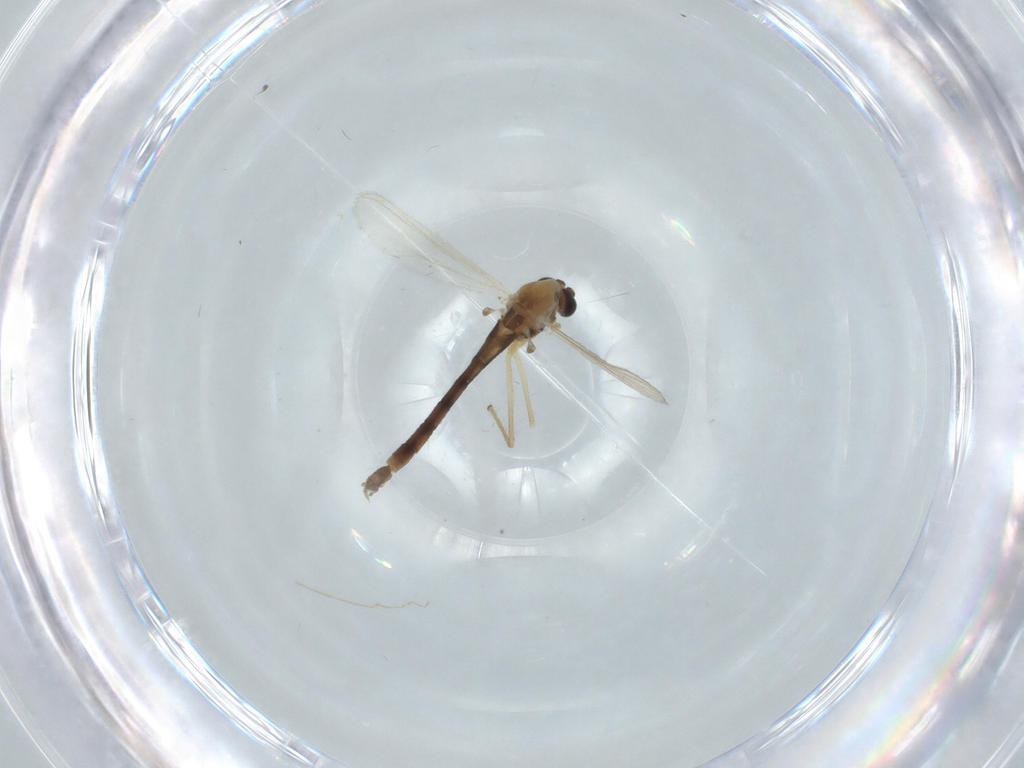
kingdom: Animalia
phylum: Arthropoda
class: Insecta
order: Diptera
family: Chironomidae
